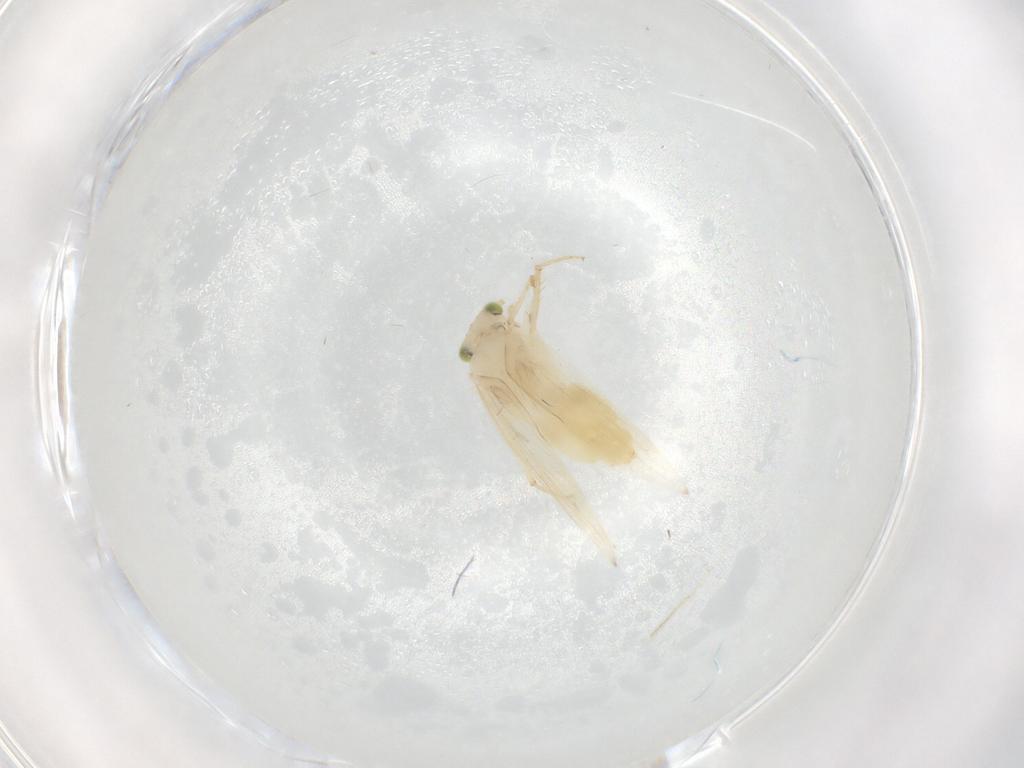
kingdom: Animalia
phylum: Arthropoda
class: Insecta
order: Psocodea
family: Lepidopsocidae
